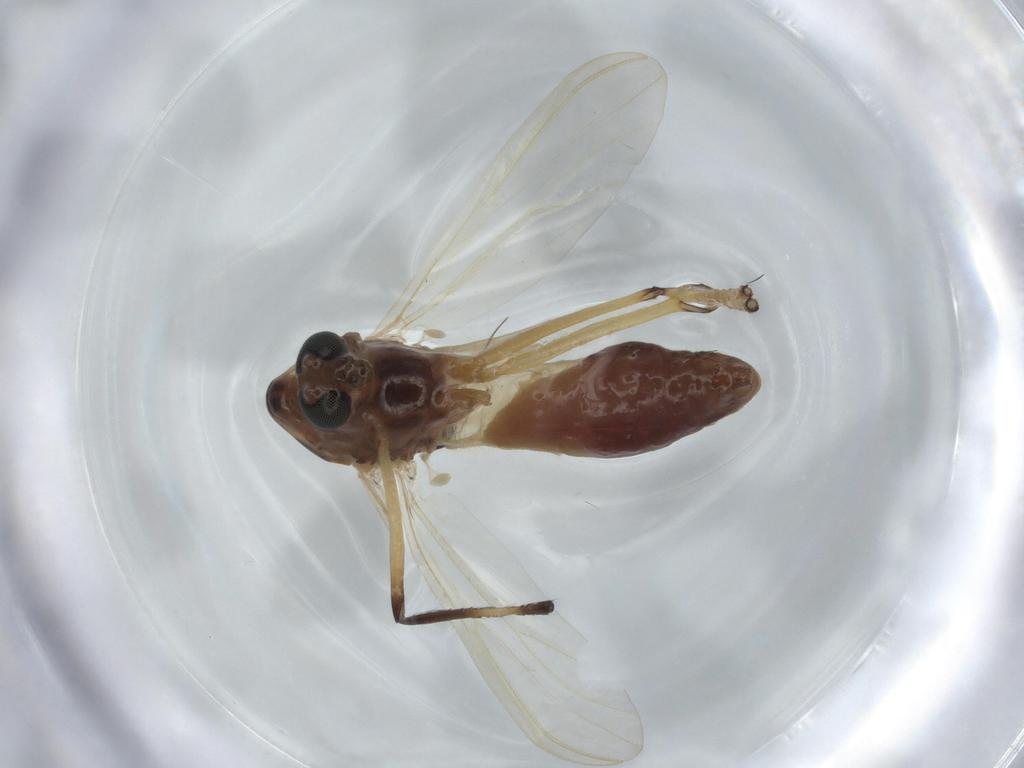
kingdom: Animalia
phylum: Arthropoda
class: Insecta
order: Diptera
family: Chironomidae
